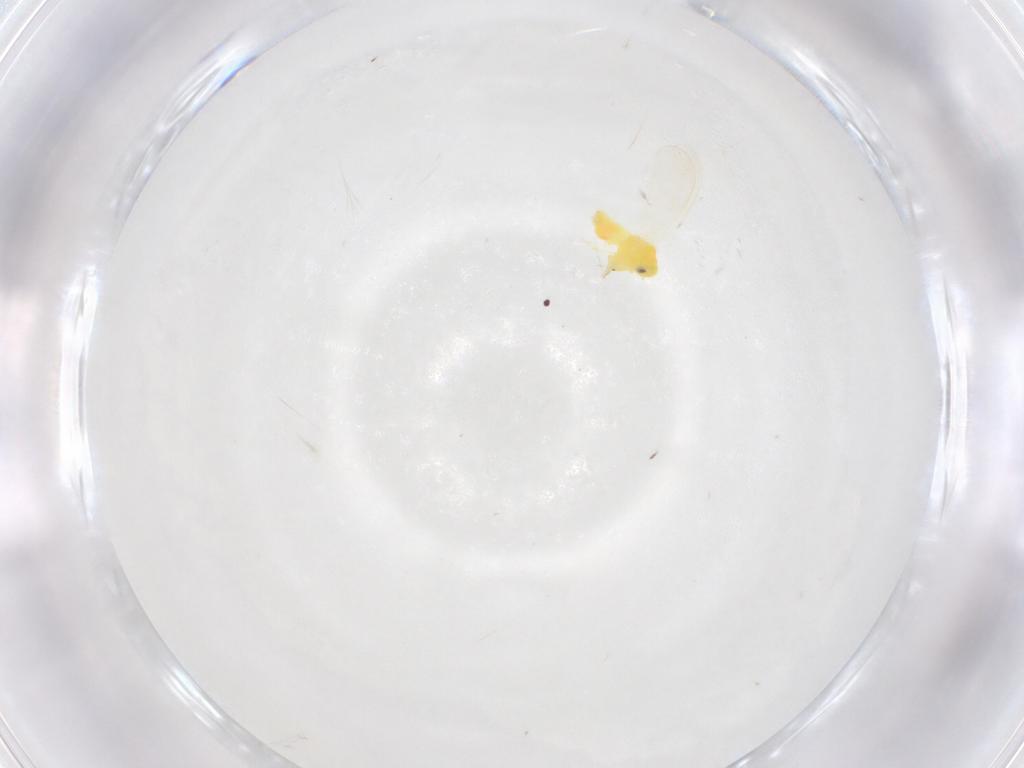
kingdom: Animalia
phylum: Arthropoda
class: Insecta
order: Hemiptera
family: Aleyrodidae
